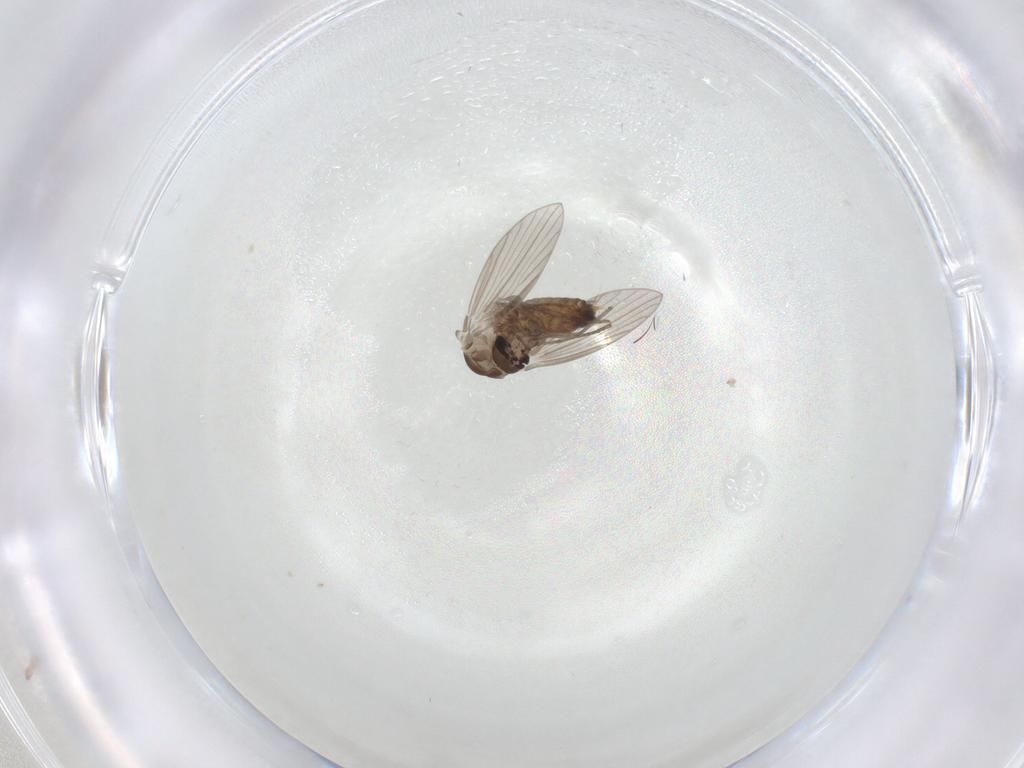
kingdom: Animalia
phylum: Arthropoda
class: Insecta
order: Diptera
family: Psychodidae
